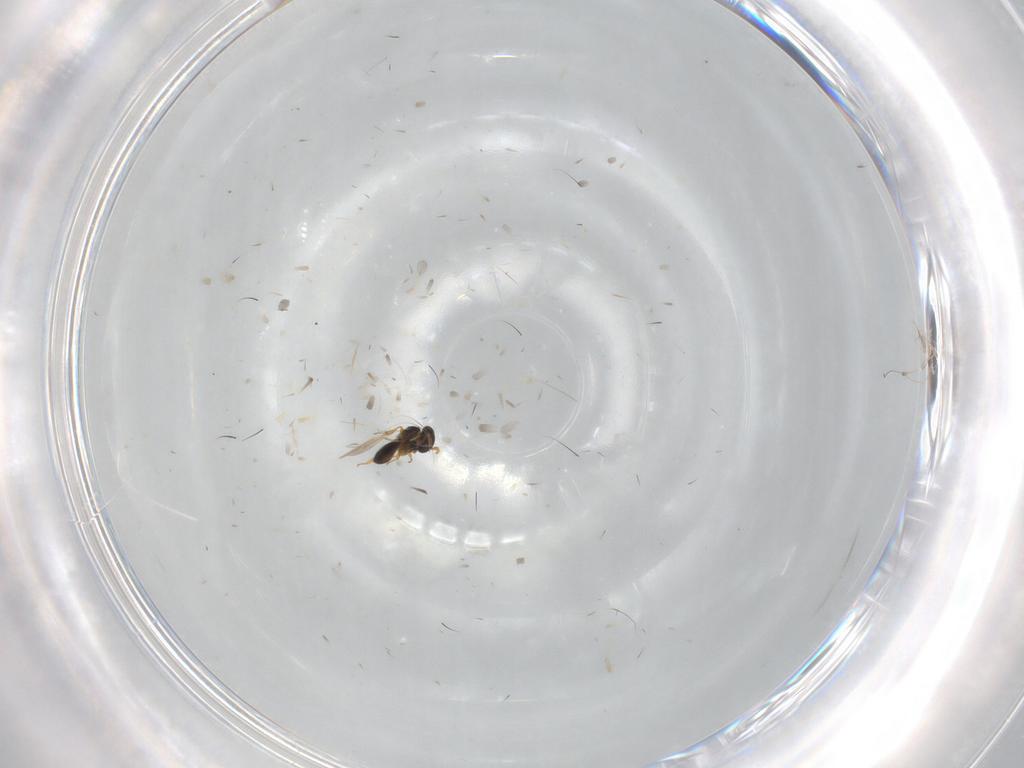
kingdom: Animalia
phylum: Arthropoda
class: Insecta
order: Hymenoptera
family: Platygastridae
